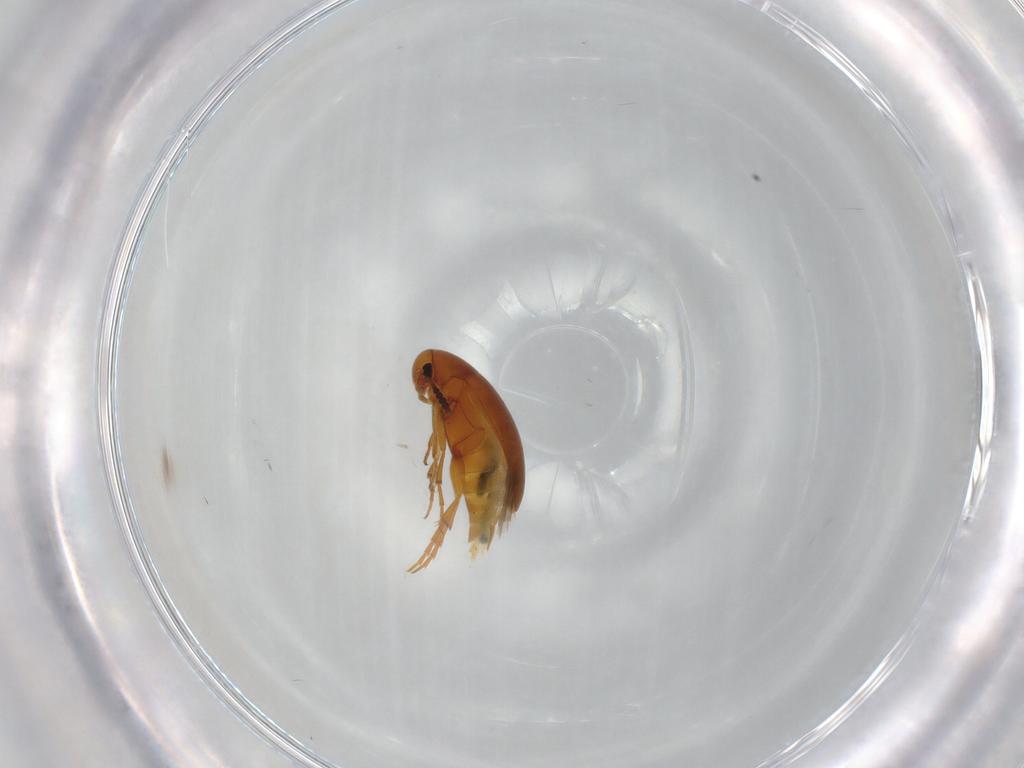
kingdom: Animalia
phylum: Arthropoda
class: Insecta
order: Coleoptera
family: Scraptiidae
